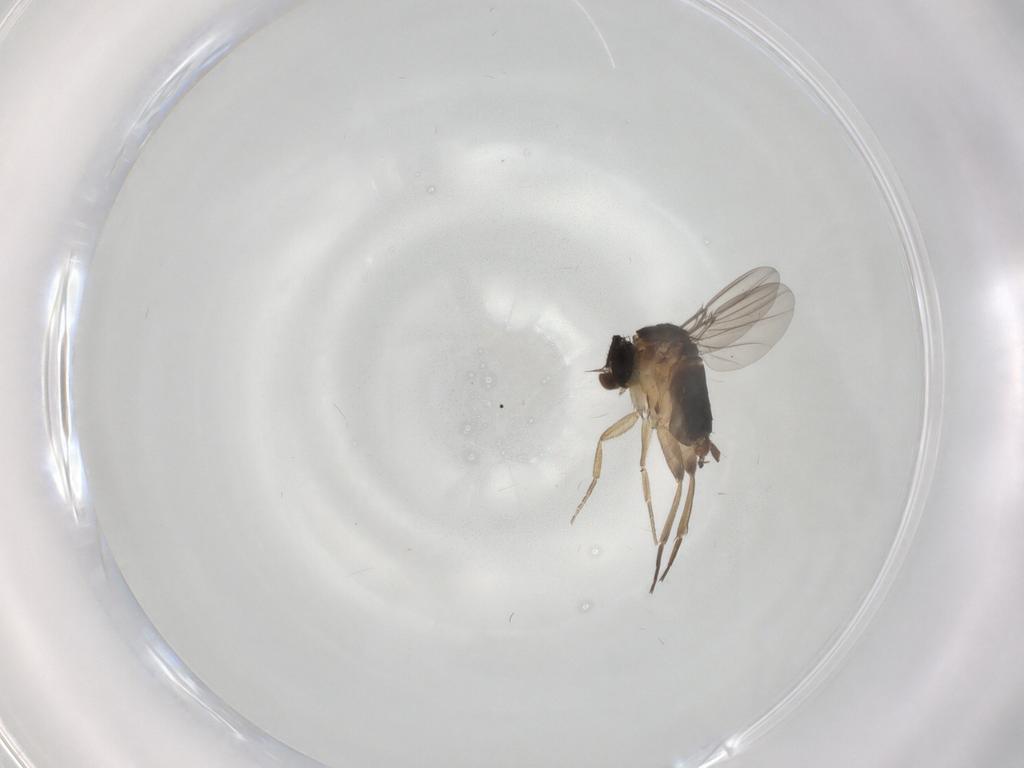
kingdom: Animalia
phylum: Arthropoda
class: Insecta
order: Diptera
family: Phoridae
